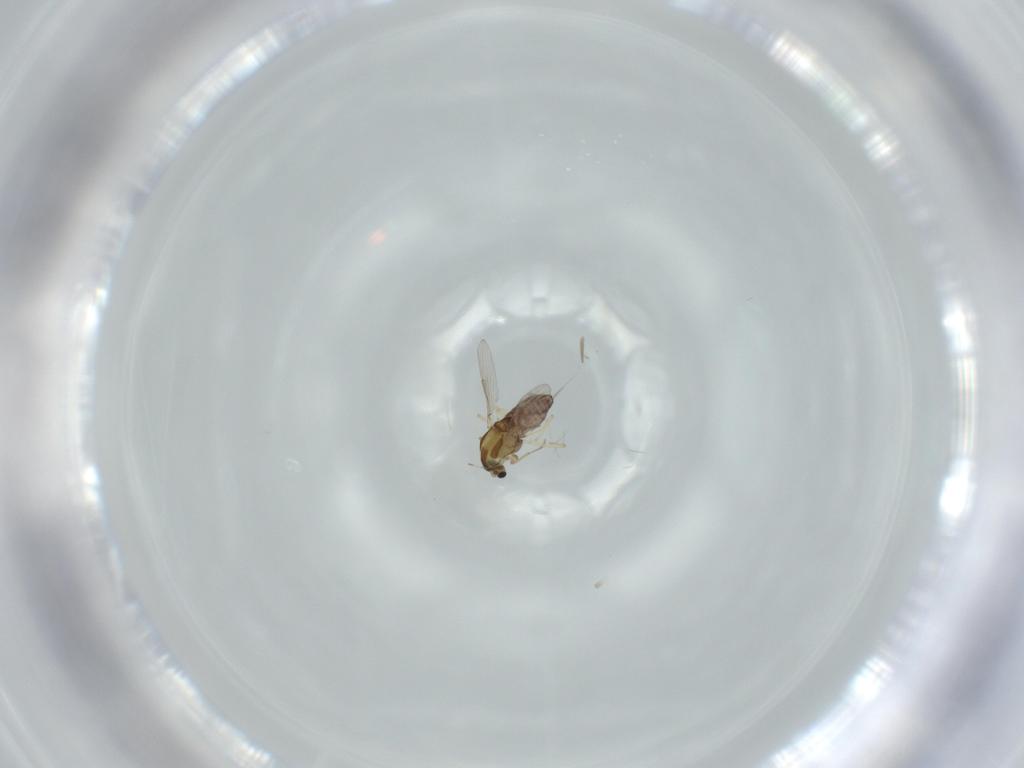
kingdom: Animalia
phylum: Arthropoda
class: Insecta
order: Diptera
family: Chironomidae
